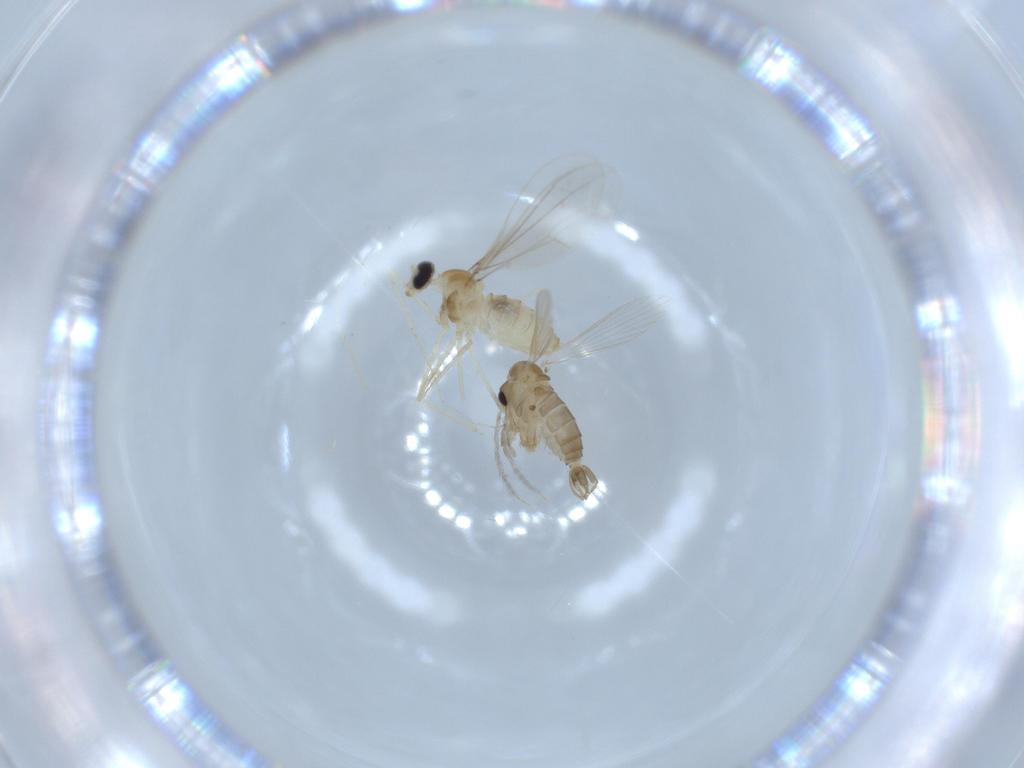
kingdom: Animalia
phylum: Arthropoda
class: Insecta
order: Diptera
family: Cecidomyiidae
